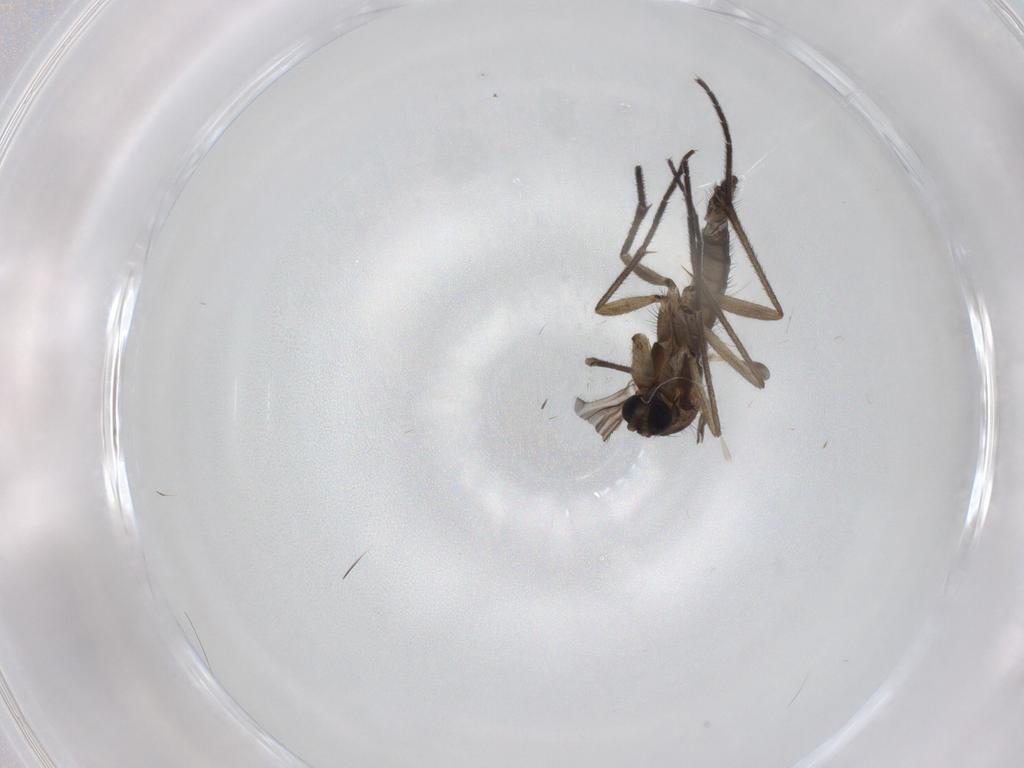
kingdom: Animalia
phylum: Arthropoda
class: Insecta
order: Diptera
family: Sciaridae
